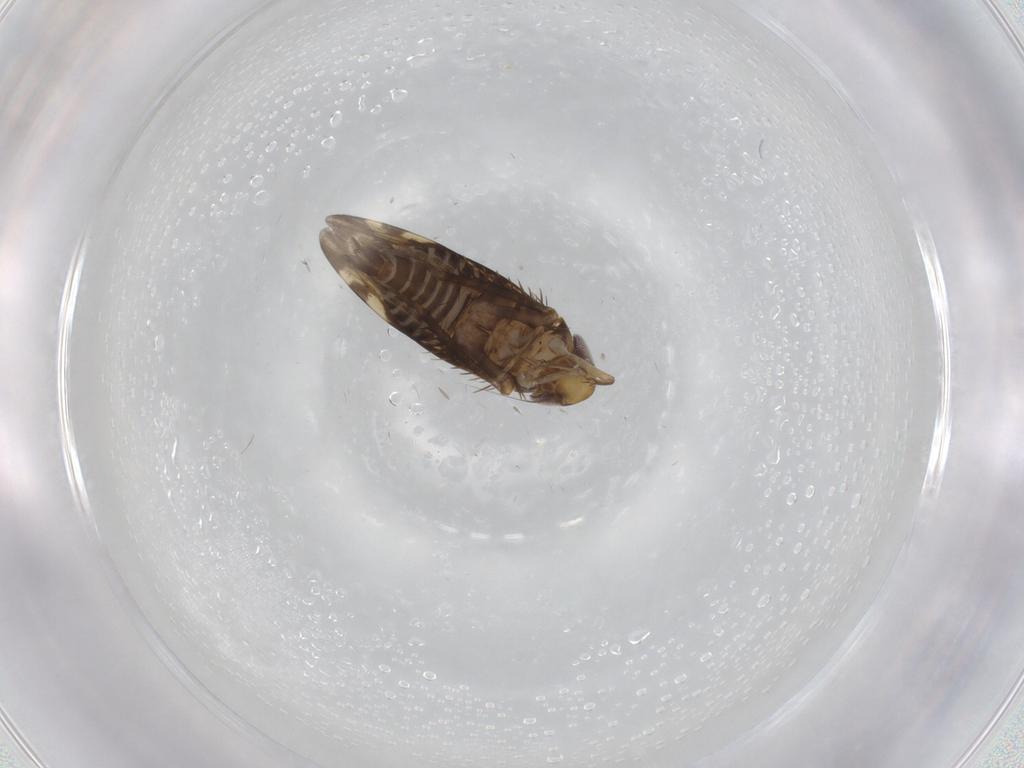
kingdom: Animalia
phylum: Arthropoda
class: Insecta
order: Hemiptera
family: Cicadellidae
